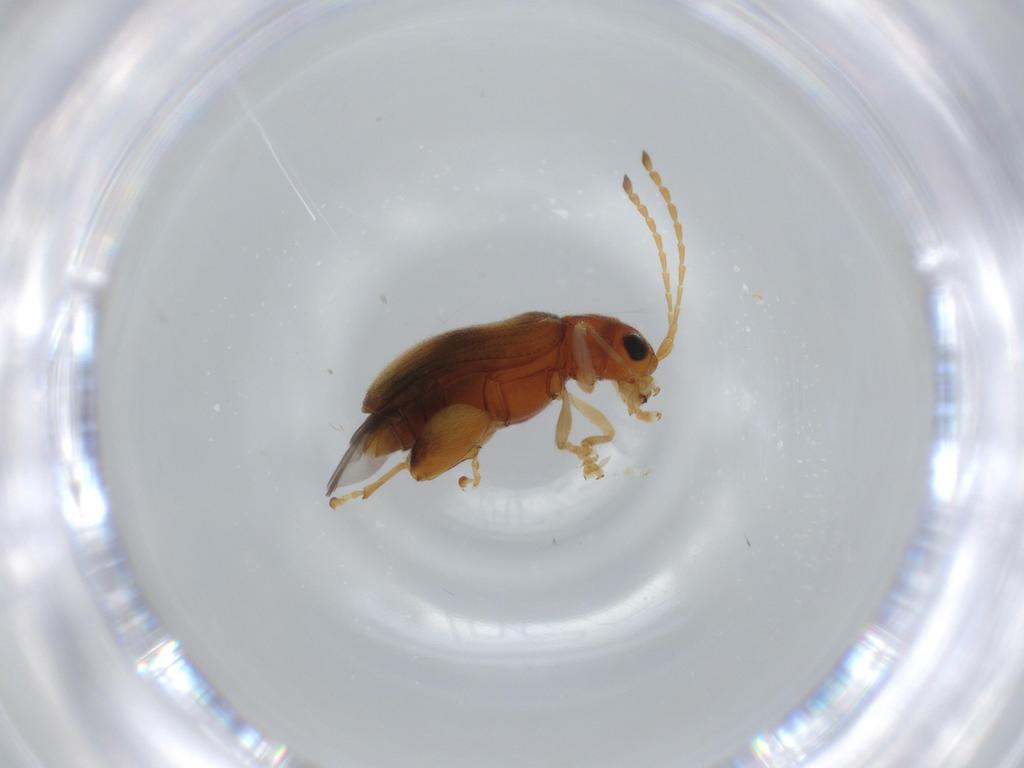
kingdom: Animalia
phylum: Arthropoda
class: Insecta
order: Coleoptera
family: Chrysomelidae
